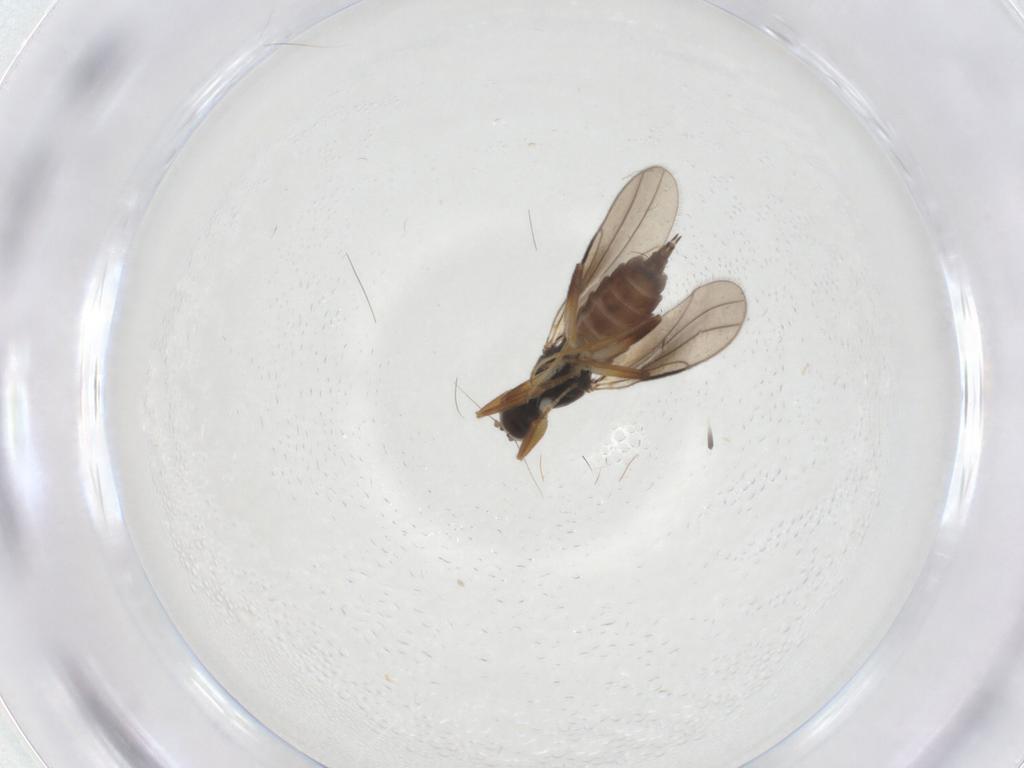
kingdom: Animalia
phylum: Arthropoda
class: Insecta
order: Diptera
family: Hybotidae
